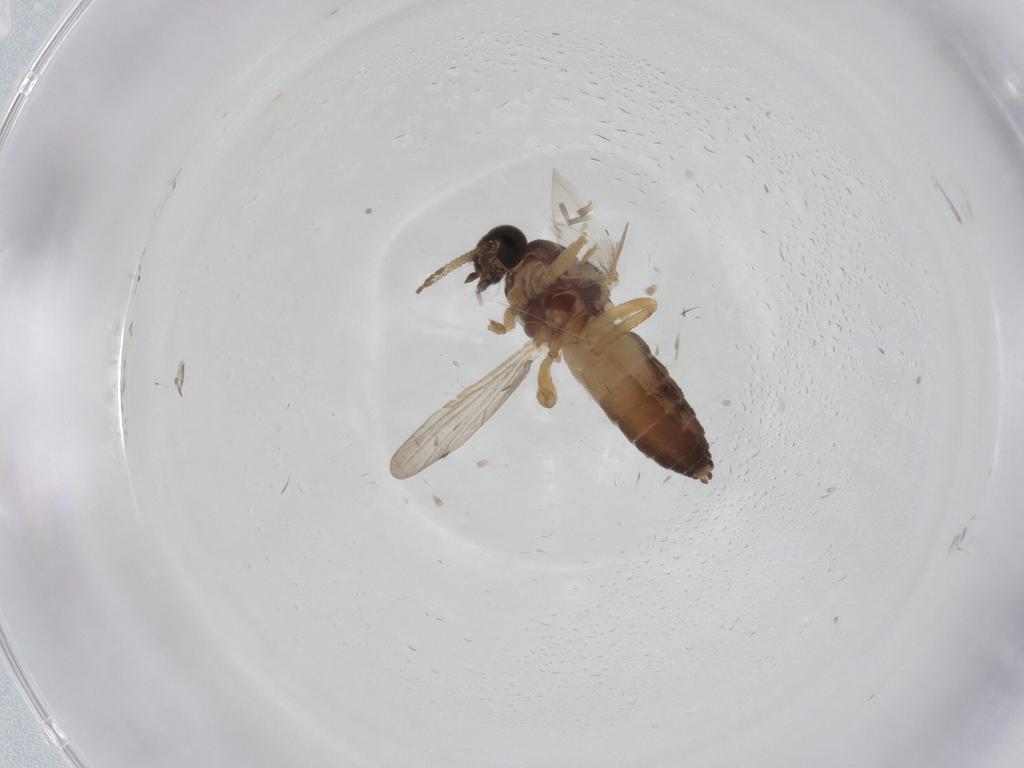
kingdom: Animalia
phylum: Arthropoda
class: Insecta
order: Diptera
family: Ceratopogonidae
